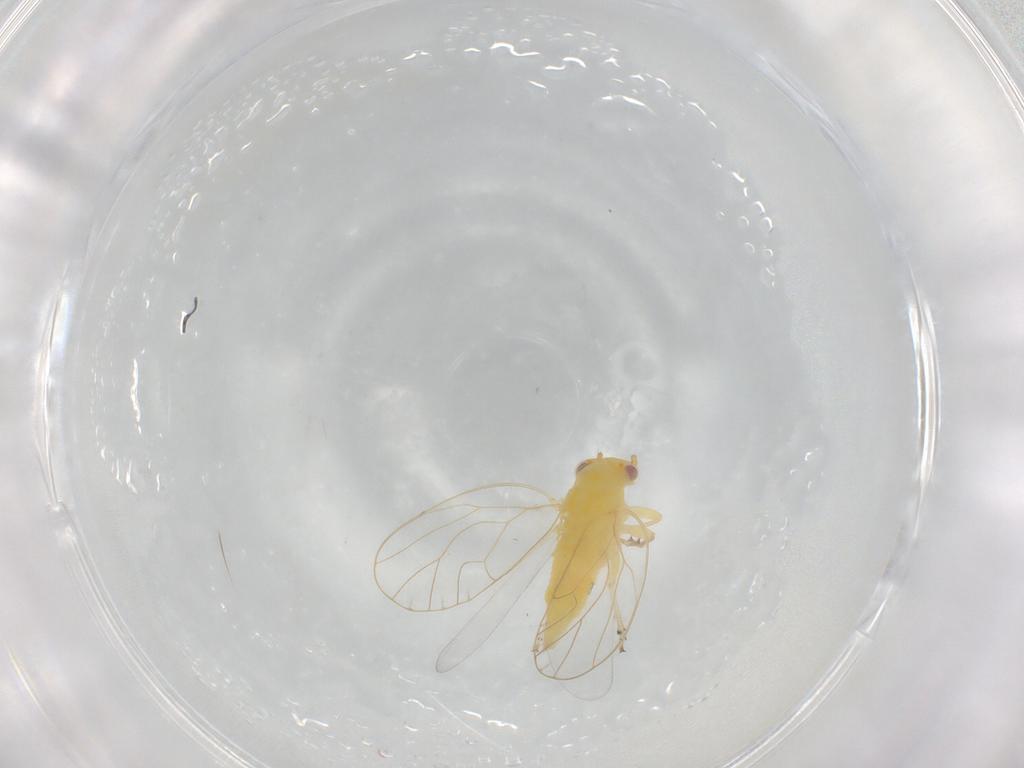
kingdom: Animalia
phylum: Arthropoda
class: Insecta
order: Hemiptera
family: Psyllidae
